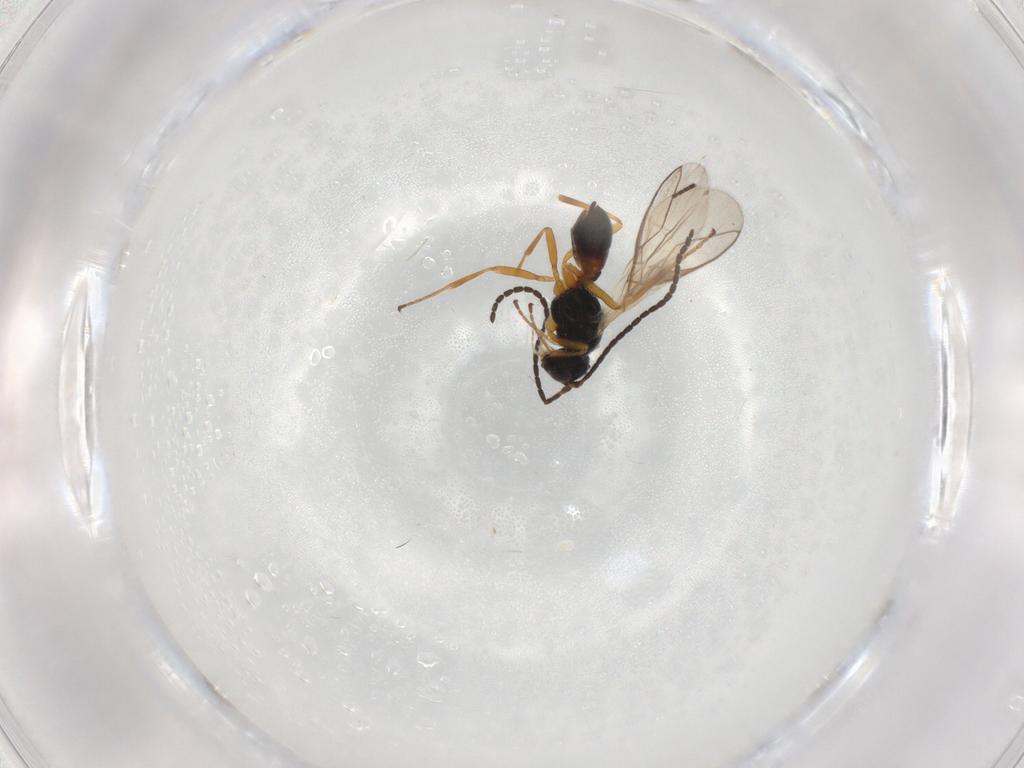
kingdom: Animalia
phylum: Arthropoda
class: Insecta
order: Hymenoptera
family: Braconidae
